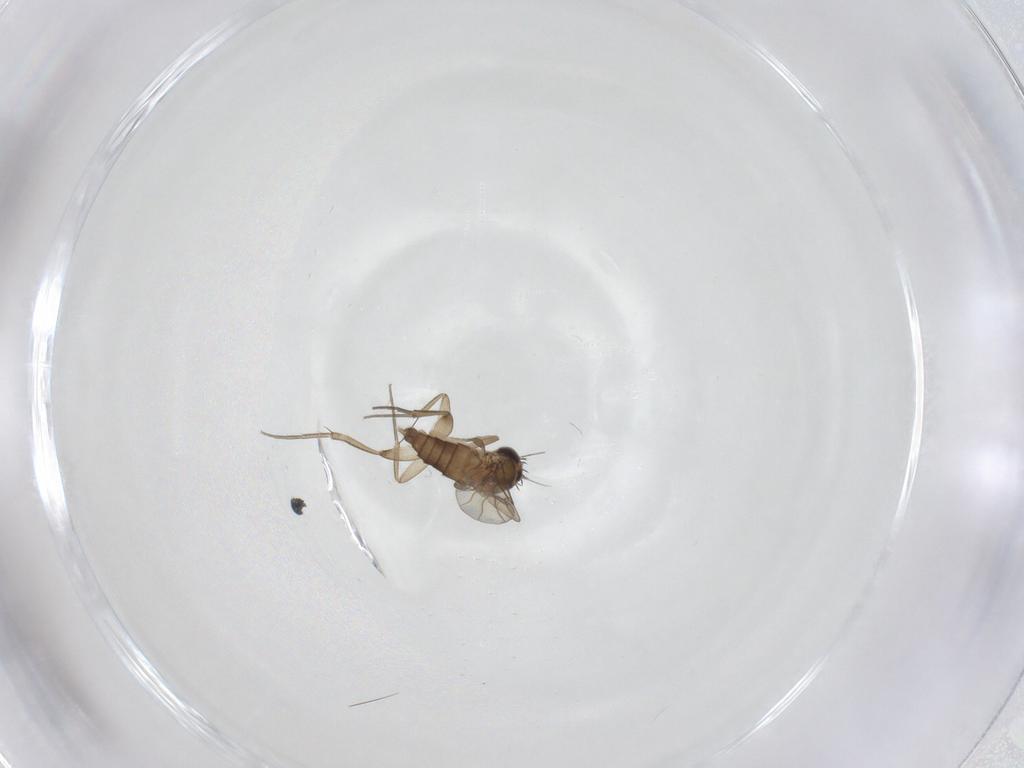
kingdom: Animalia
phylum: Arthropoda
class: Insecta
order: Diptera
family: Phoridae
